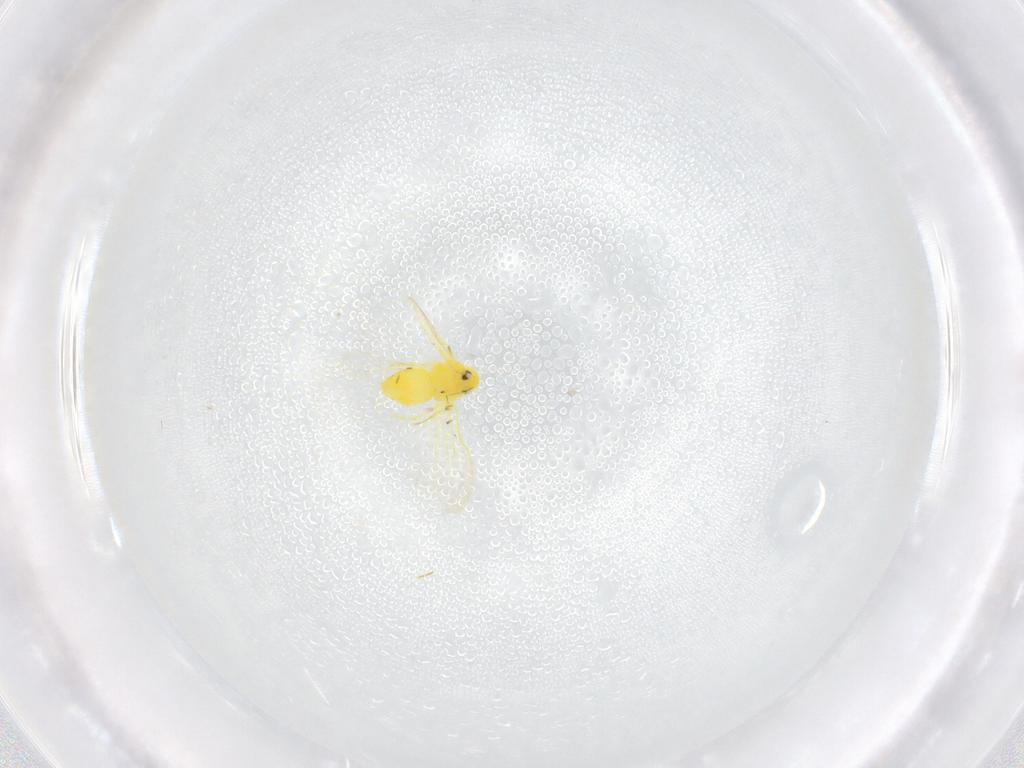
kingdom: Animalia
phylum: Arthropoda
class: Insecta
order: Hemiptera
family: Aleyrodidae
